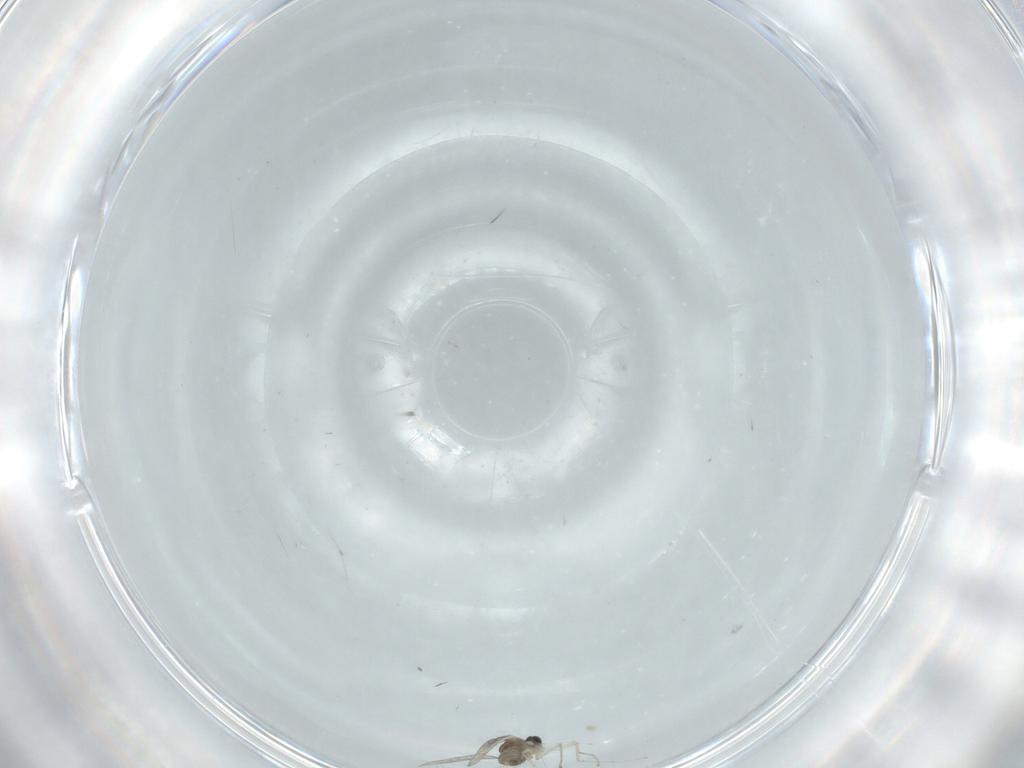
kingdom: Animalia
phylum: Arthropoda
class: Insecta
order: Diptera
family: Cecidomyiidae
